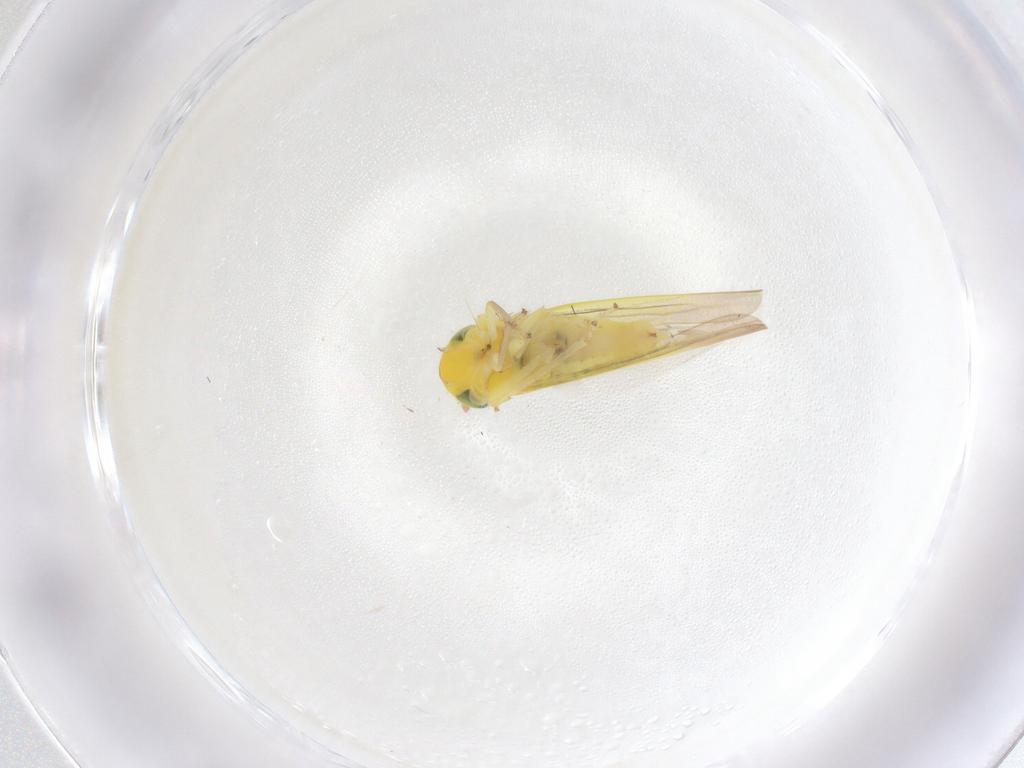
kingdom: Animalia
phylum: Arthropoda
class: Insecta
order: Hemiptera
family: Cicadellidae
